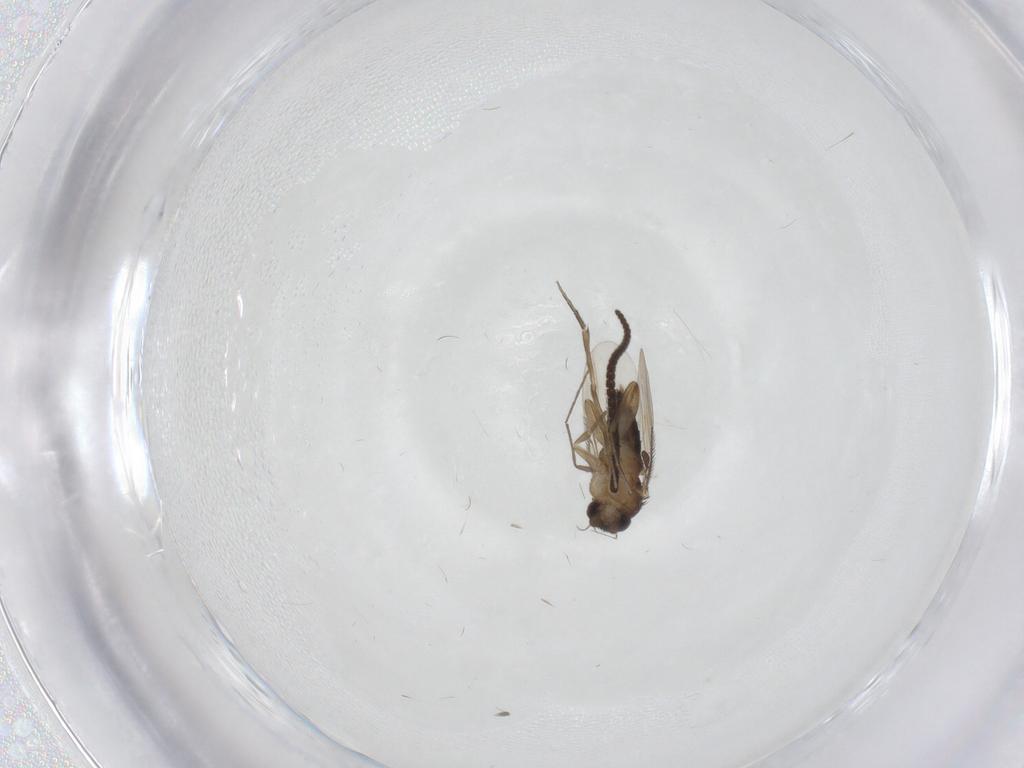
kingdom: Animalia
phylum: Arthropoda
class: Insecta
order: Diptera
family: Phoridae
